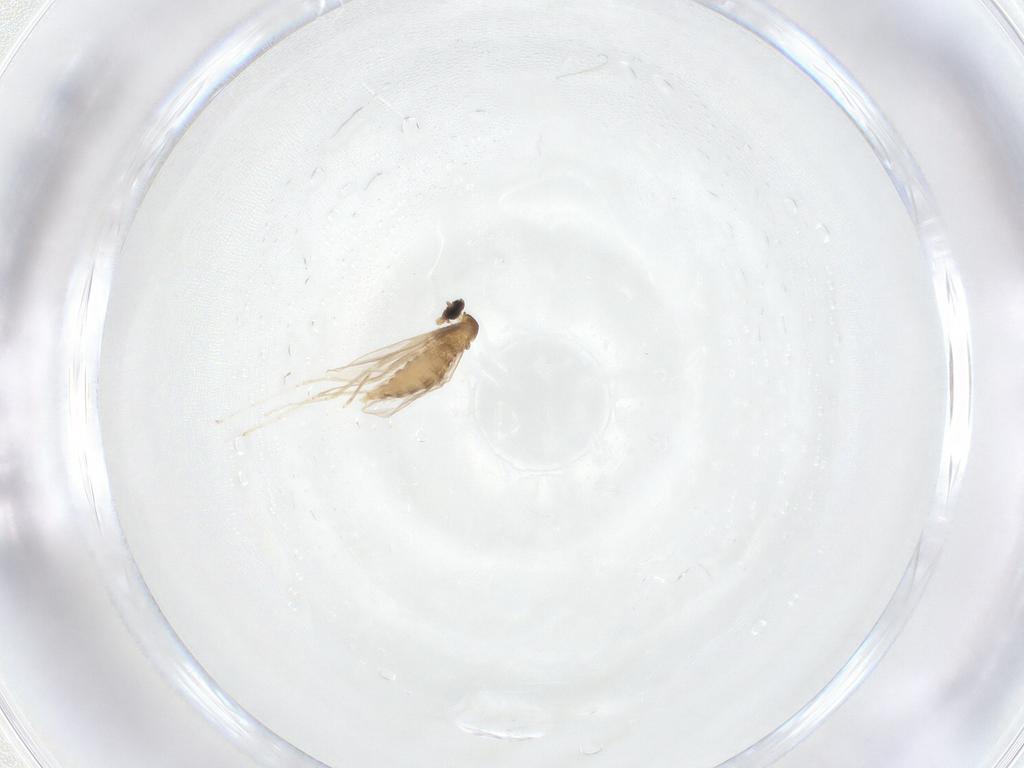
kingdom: Animalia
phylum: Arthropoda
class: Insecta
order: Diptera
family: Cecidomyiidae
